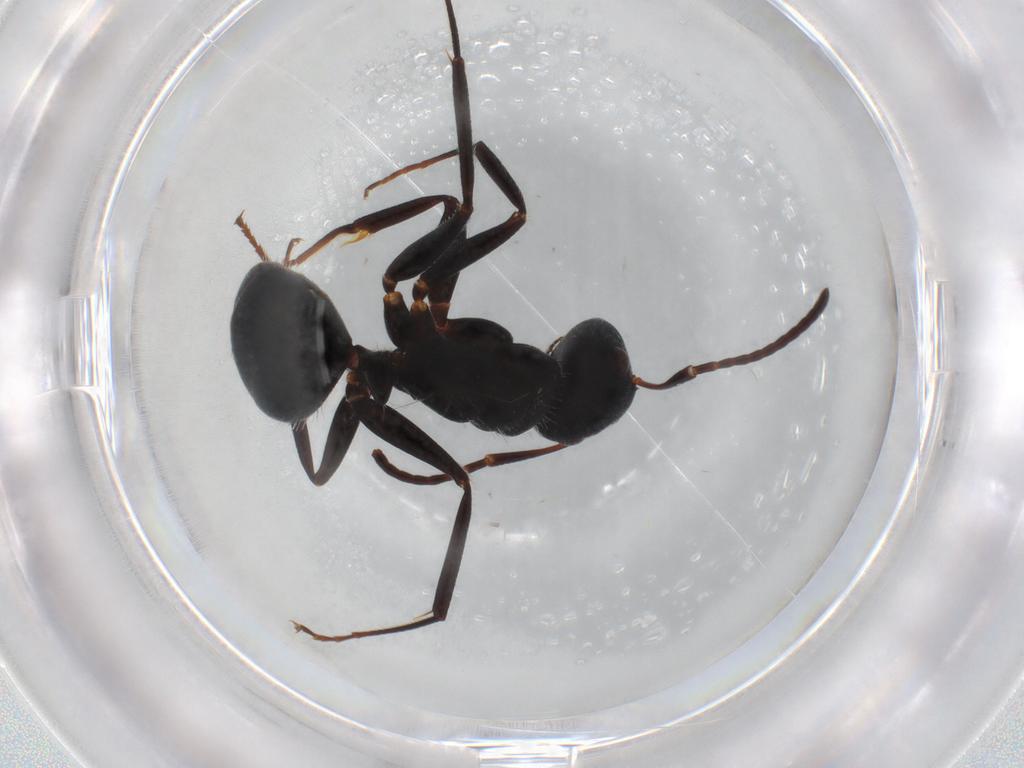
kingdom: Animalia
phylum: Arthropoda
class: Insecta
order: Hymenoptera
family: Formicidae
